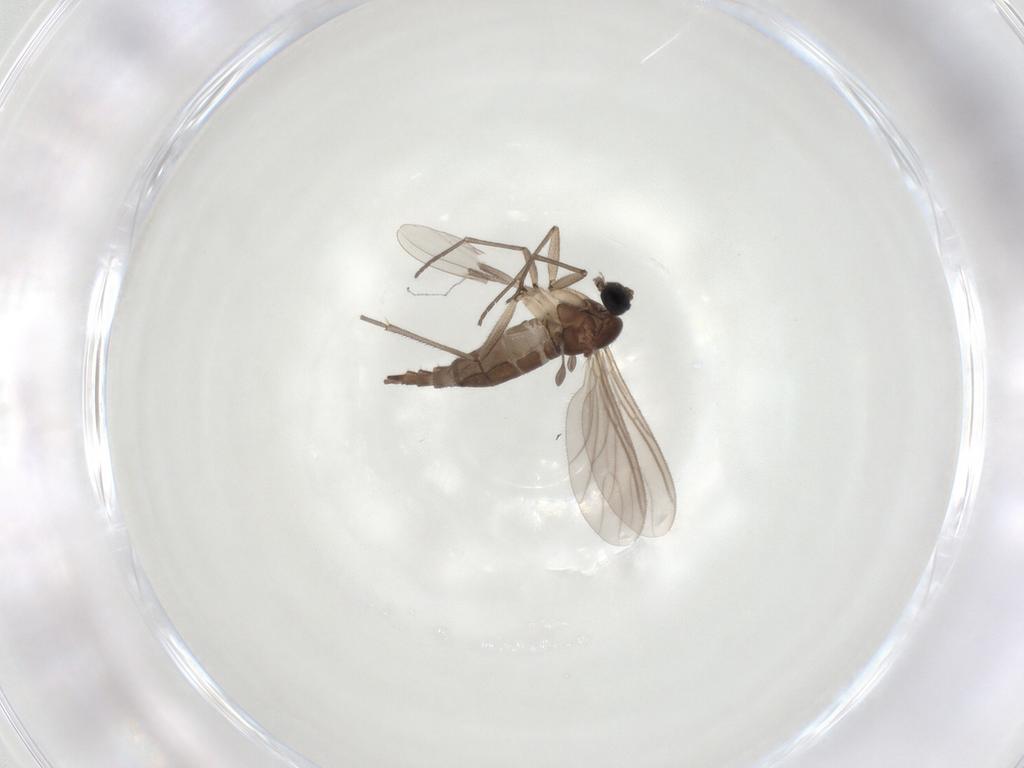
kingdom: Animalia
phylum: Arthropoda
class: Insecta
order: Diptera
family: Sciaridae
